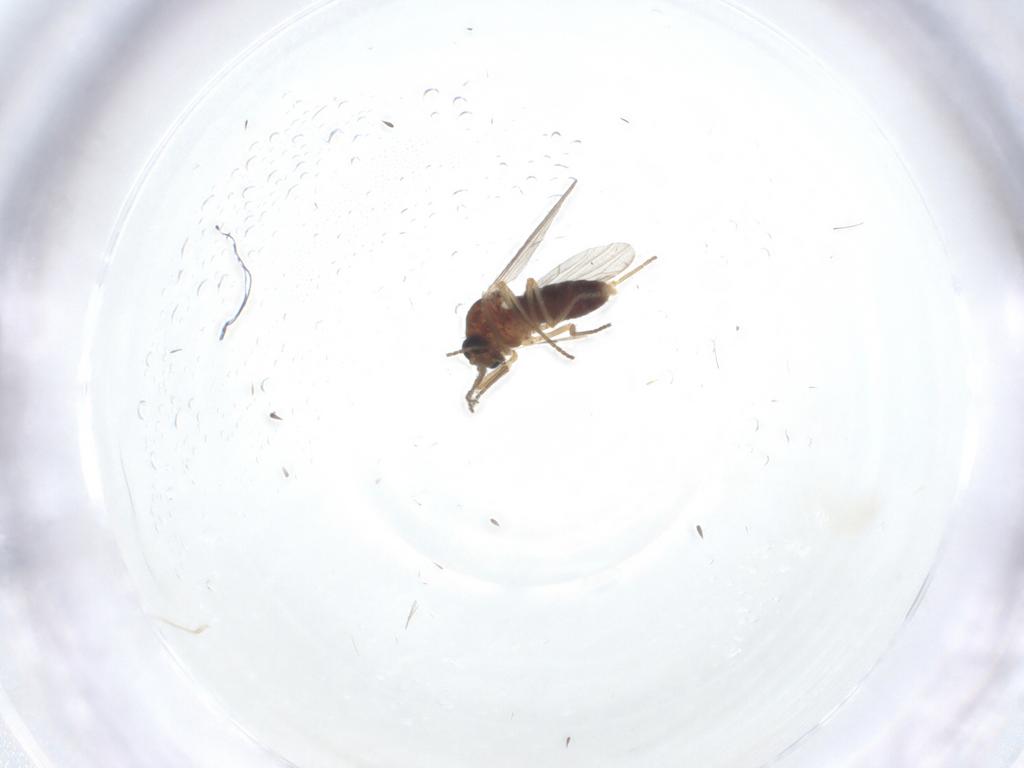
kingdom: Animalia
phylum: Arthropoda
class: Insecta
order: Diptera
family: Ceratopogonidae
